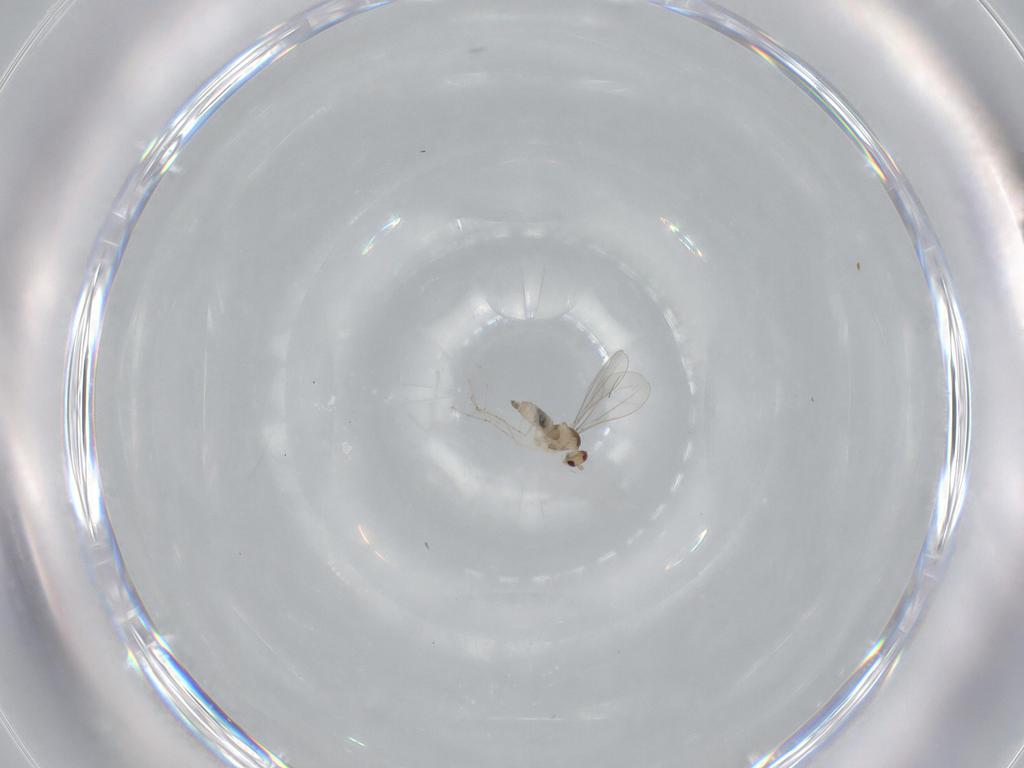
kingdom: Animalia
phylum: Arthropoda
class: Insecta
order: Diptera
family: Cecidomyiidae
